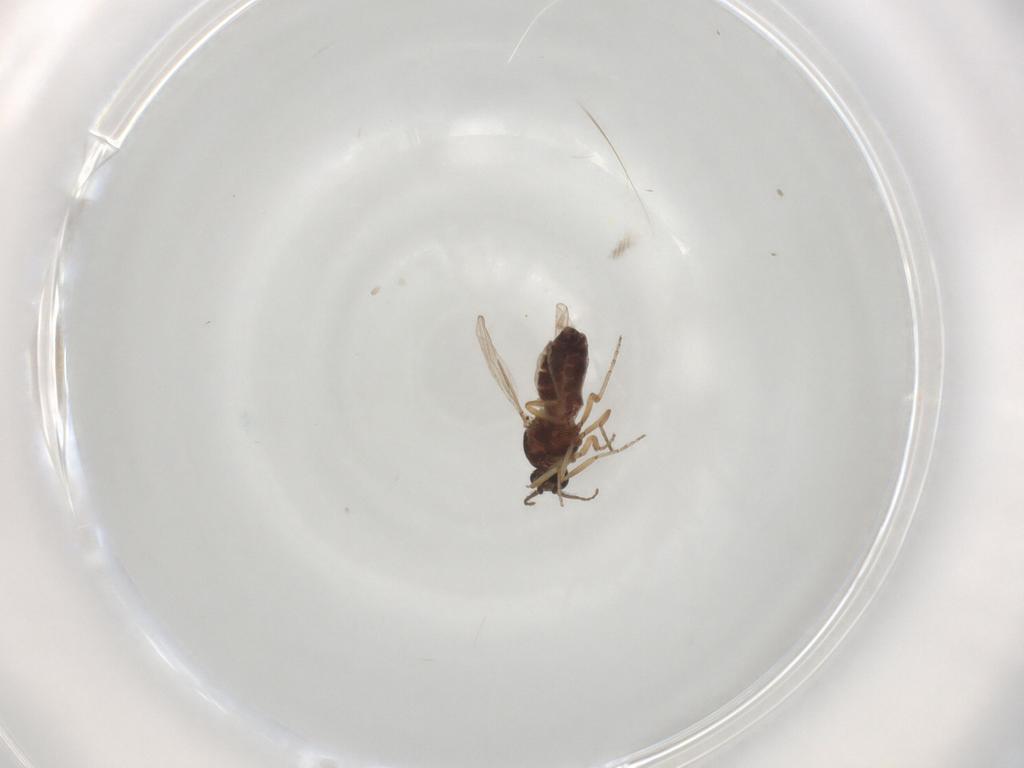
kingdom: Animalia
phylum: Arthropoda
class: Insecta
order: Diptera
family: Ceratopogonidae
